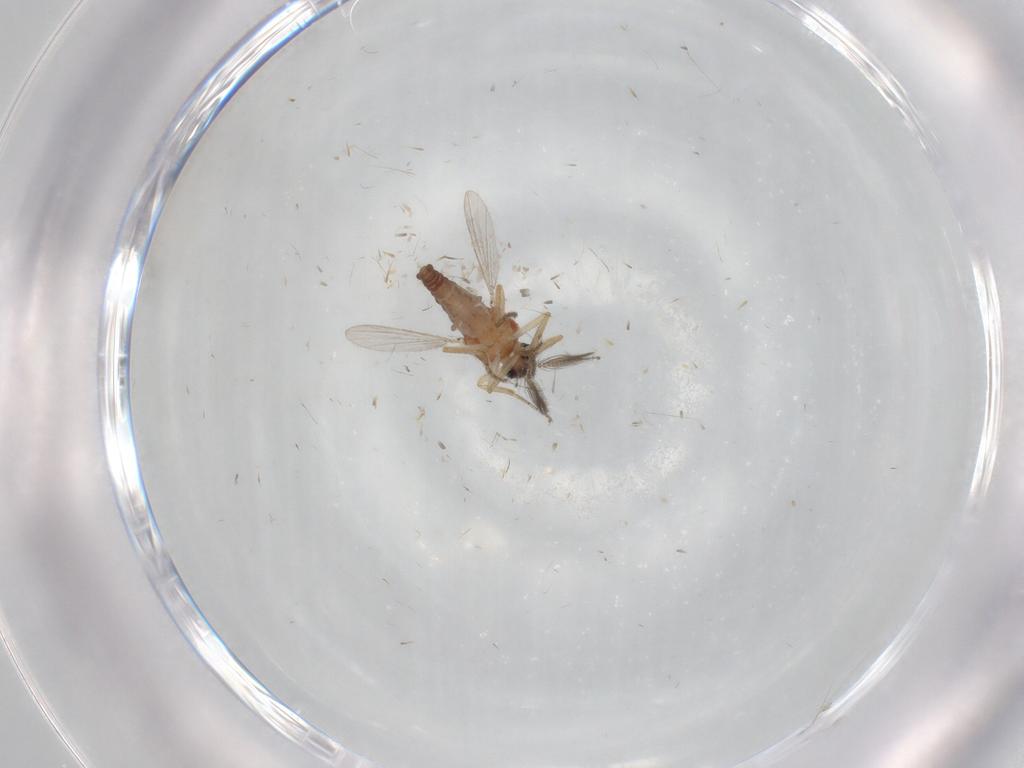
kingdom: Animalia
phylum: Arthropoda
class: Insecta
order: Diptera
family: Ceratopogonidae
